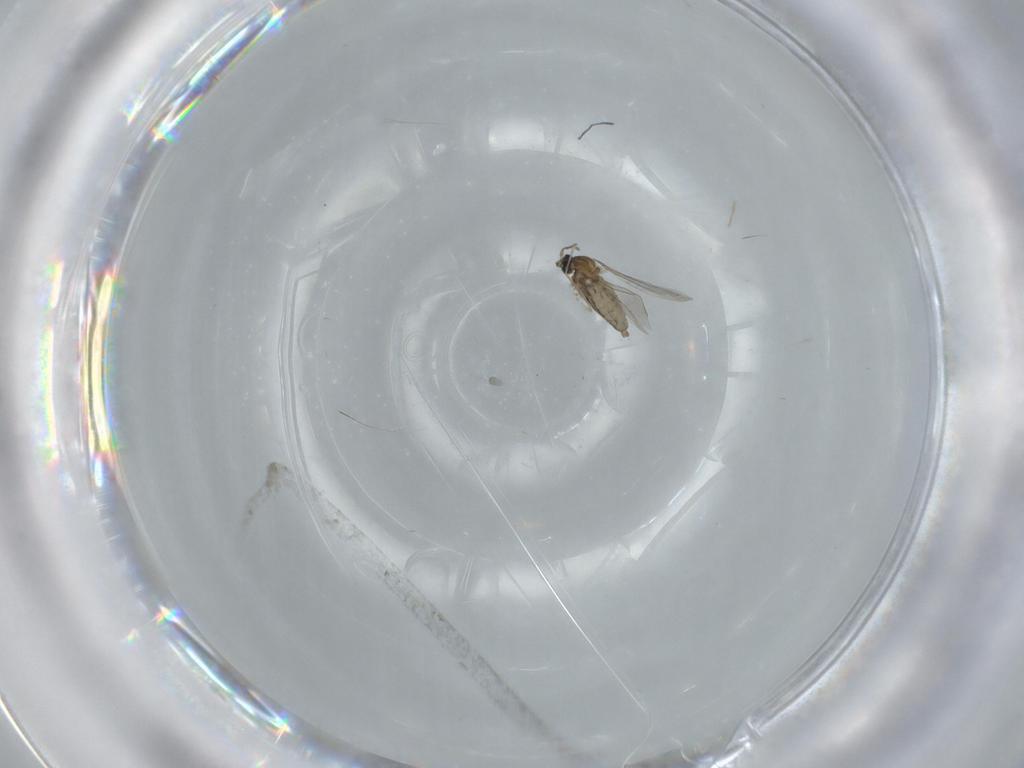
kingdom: Animalia
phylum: Arthropoda
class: Insecta
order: Diptera
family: Cecidomyiidae
